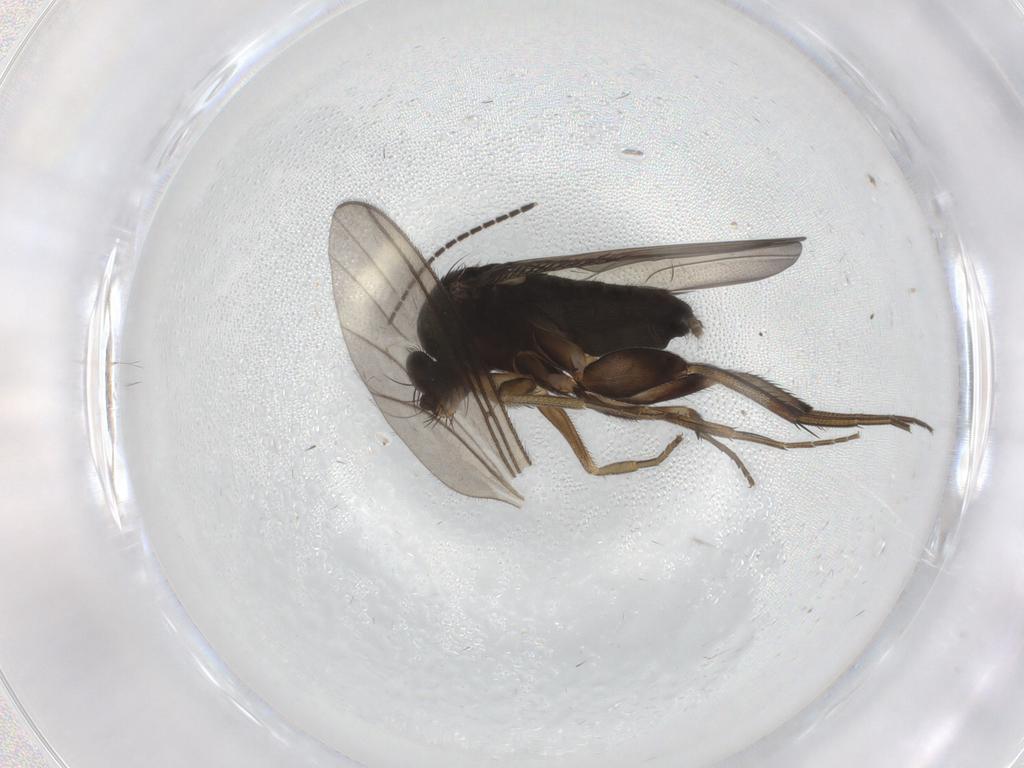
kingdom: Animalia
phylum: Arthropoda
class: Insecta
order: Diptera
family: Phoridae
